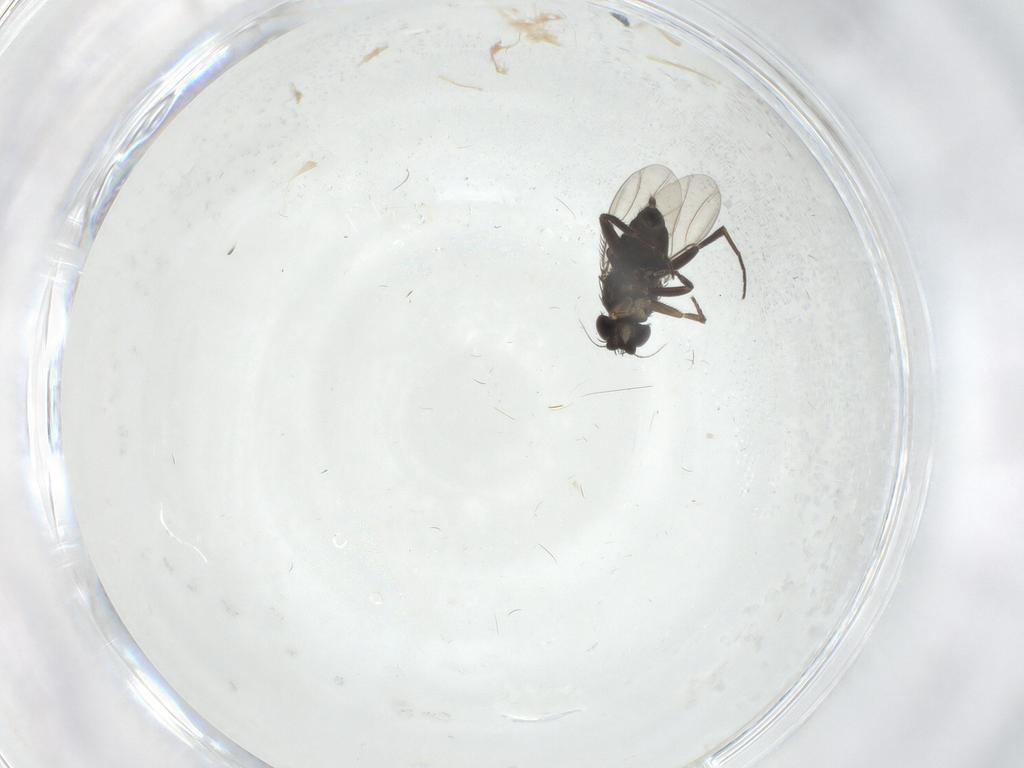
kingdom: Animalia
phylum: Arthropoda
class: Insecta
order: Diptera
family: Phoridae
